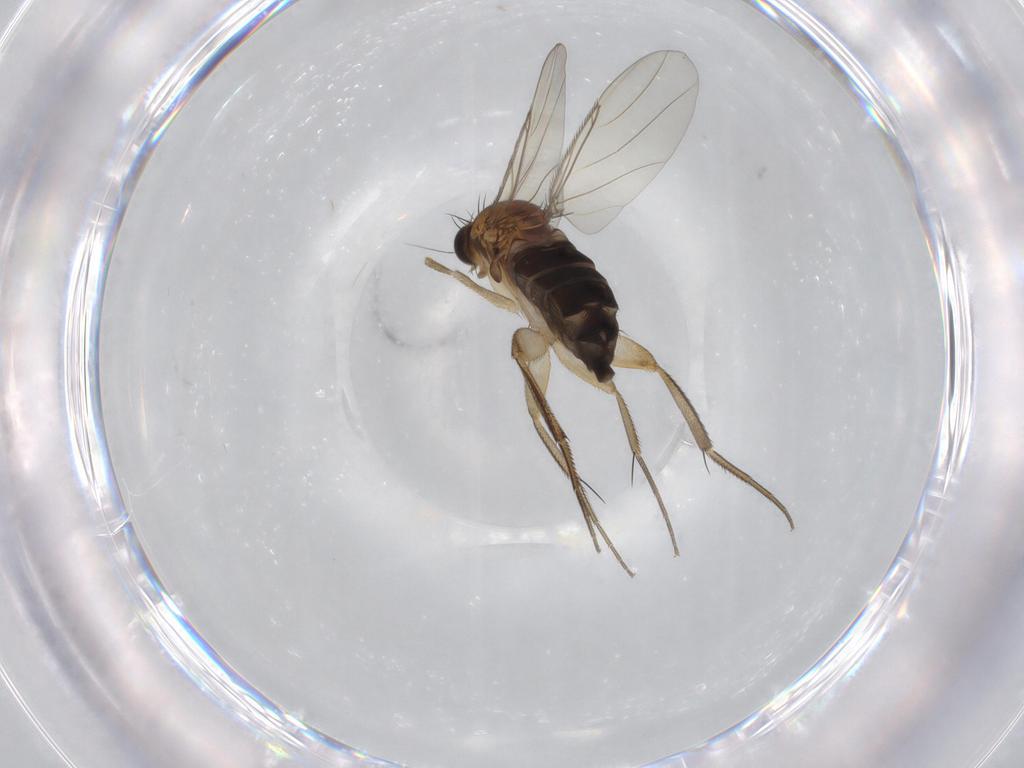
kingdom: Animalia
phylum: Arthropoda
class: Insecta
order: Diptera
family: Phoridae
